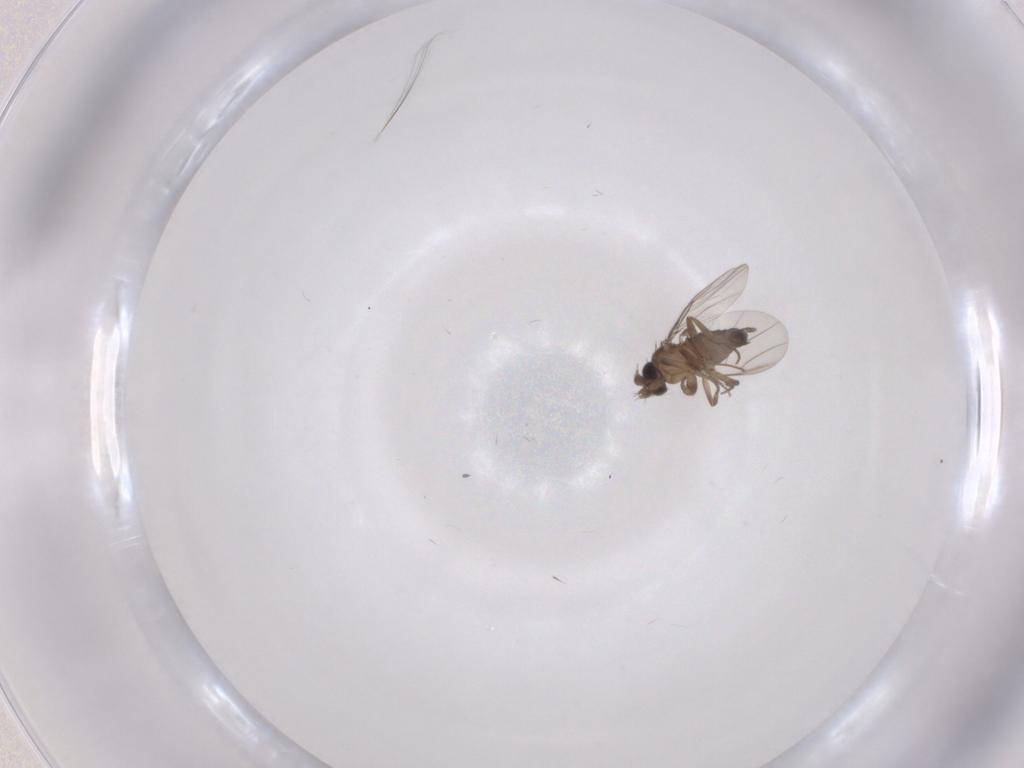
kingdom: Animalia
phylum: Arthropoda
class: Insecta
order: Diptera
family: Phoridae
